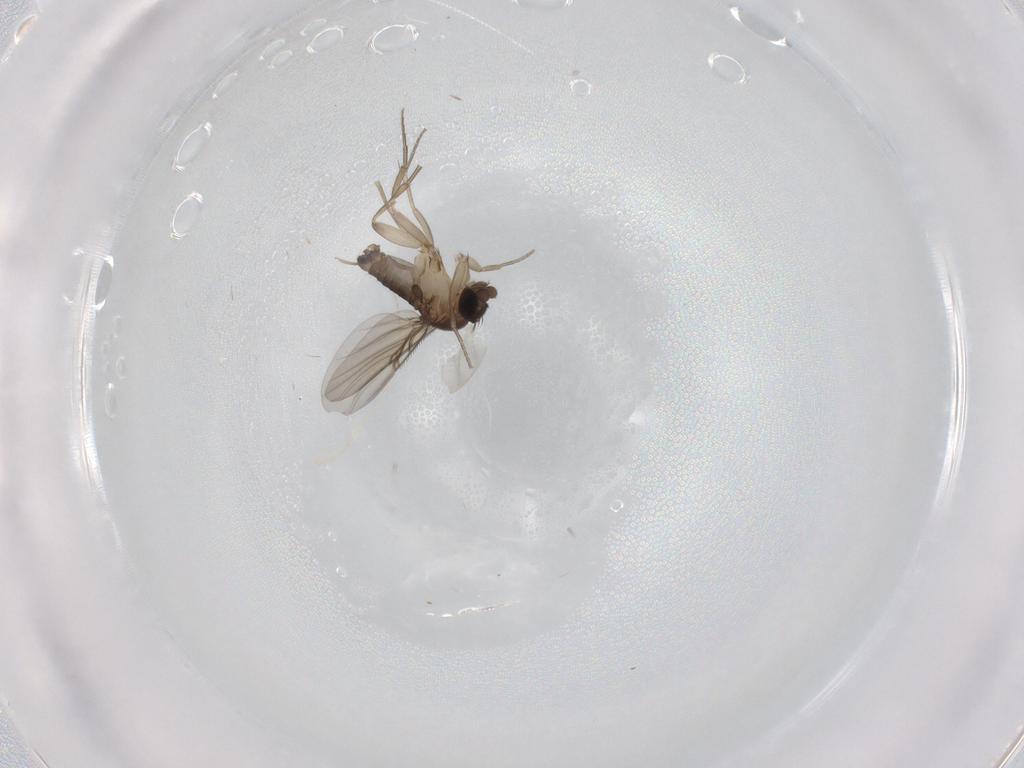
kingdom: Animalia
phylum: Arthropoda
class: Insecta
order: Diptera
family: Phoridae
